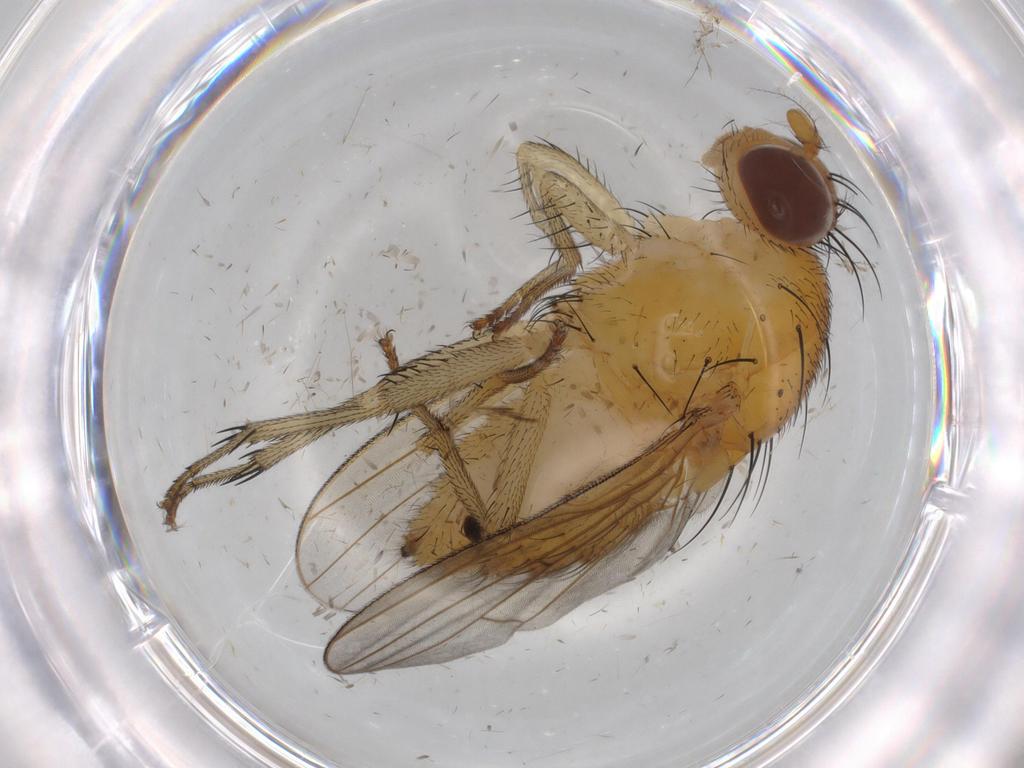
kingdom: Animalia
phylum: Arthropoda
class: Insecta
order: Diptera
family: Cecidomyiidae
